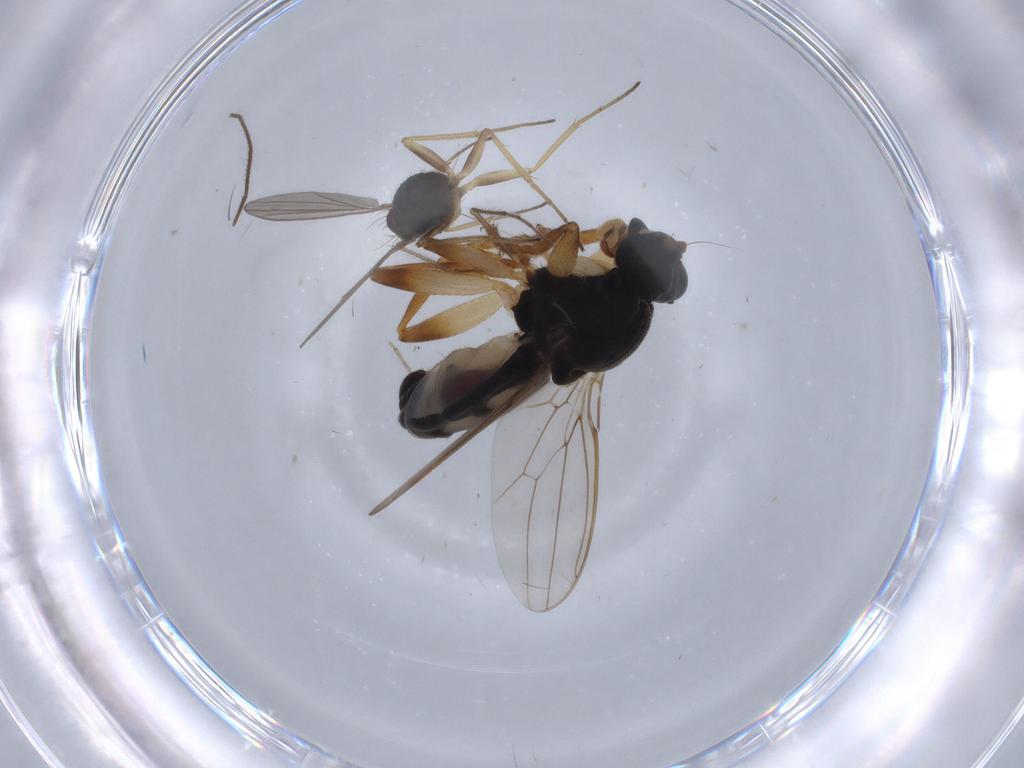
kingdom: Animalia
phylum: Arthropoda
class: Insecta
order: Diptera
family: Dolichopodidae
